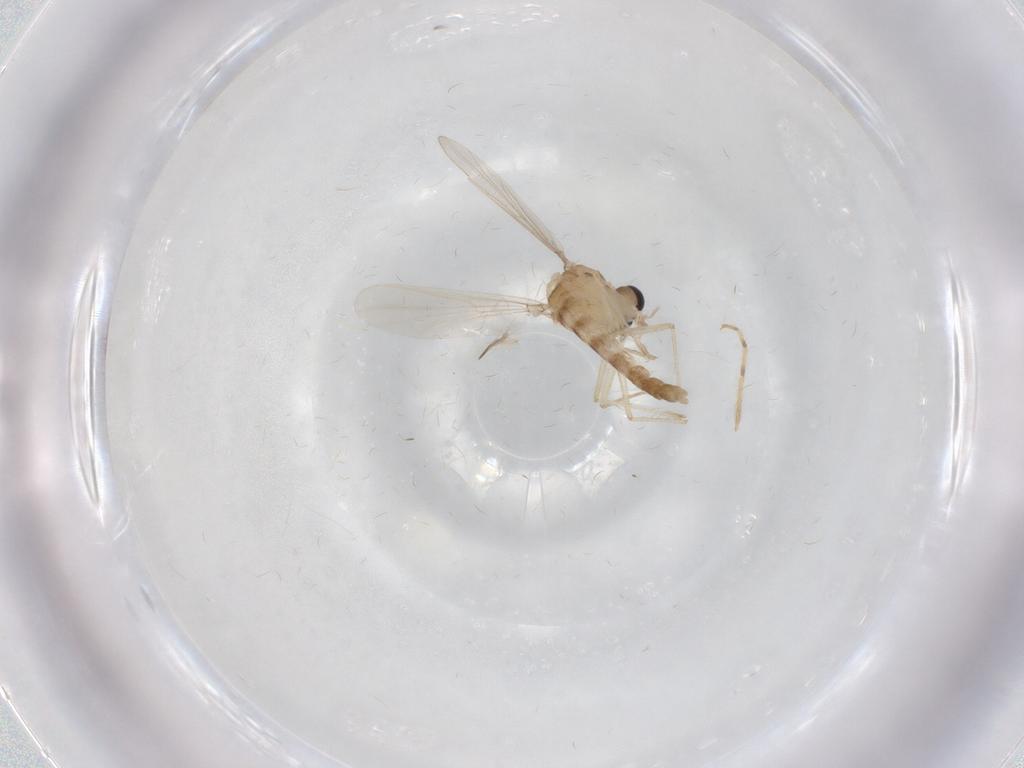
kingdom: Animalia
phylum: Arthropoda
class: Insecta
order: Diptera
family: Chironomidae
